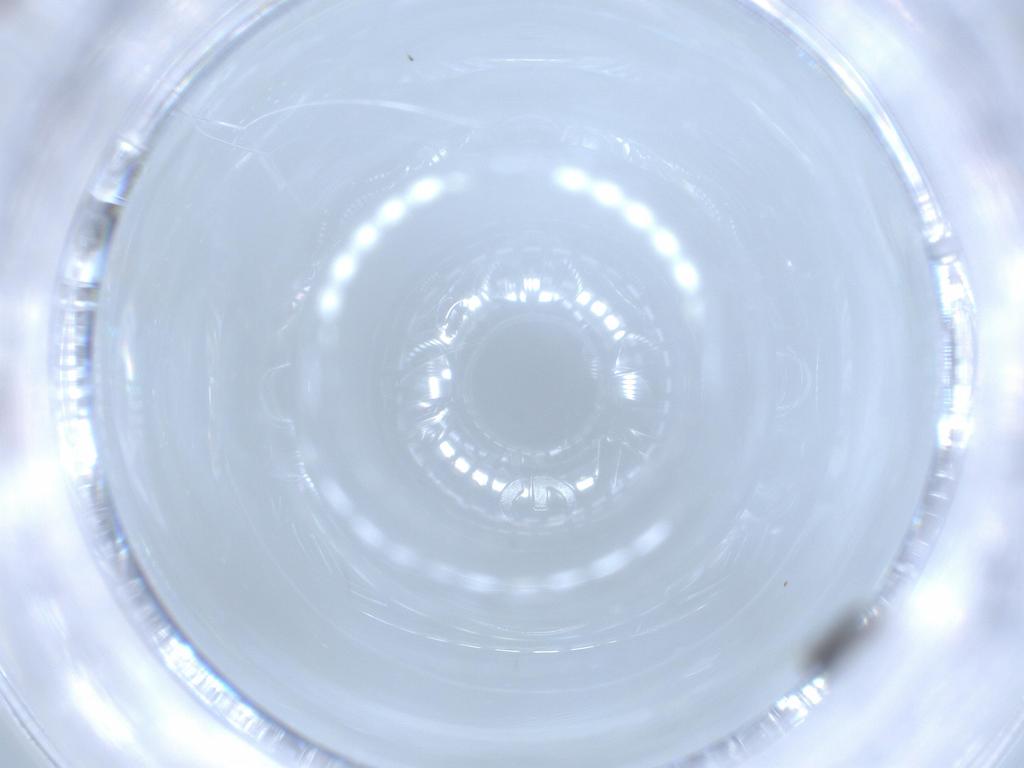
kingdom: Animalia
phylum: Arthropoda
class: Insecta
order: Hymenoptera
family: Scelionidae
